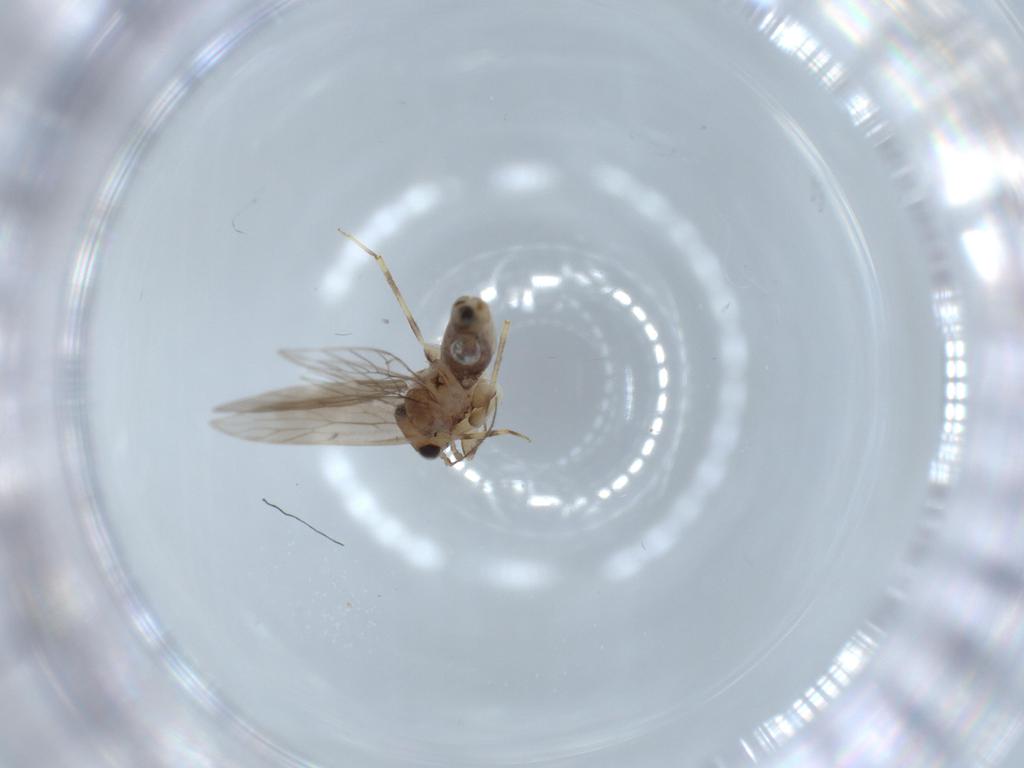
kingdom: Animalia
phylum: Arthropoda
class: Insecta
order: Psocodea
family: Lepidopsocidae
